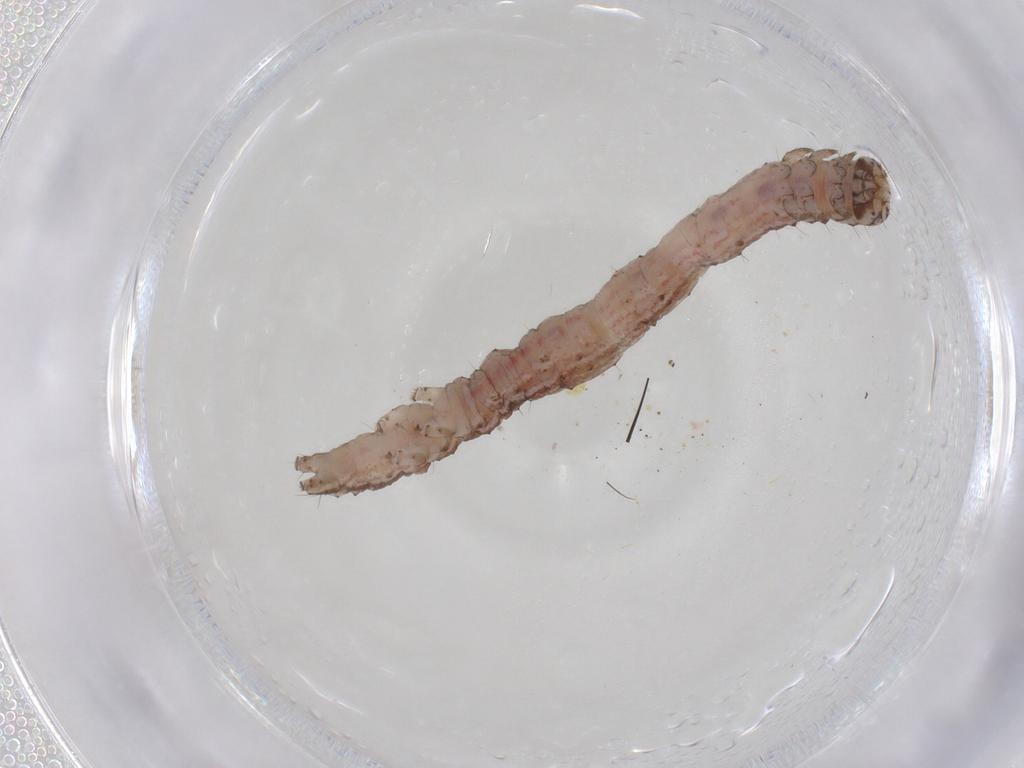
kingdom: Animalia
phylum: Arthropoda
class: Insecta
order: Lepidoptera
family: Erebidae
